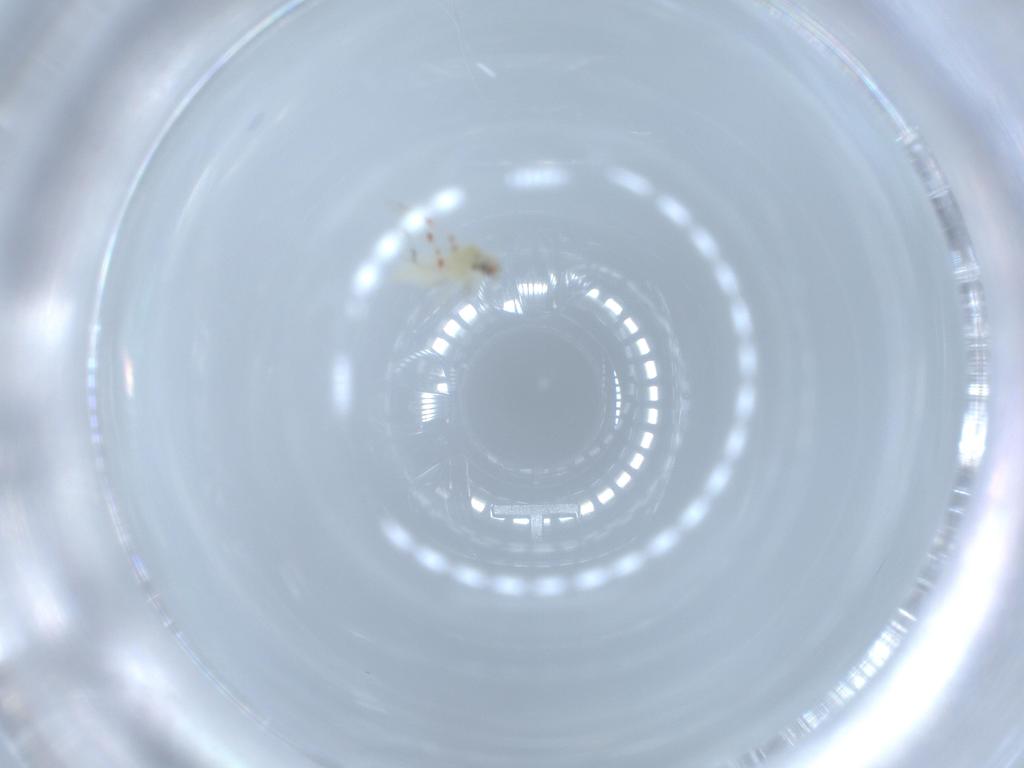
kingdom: Animalia
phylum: Arthropoda
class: Insecta
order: Hemiptera
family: Aleyrodidae
